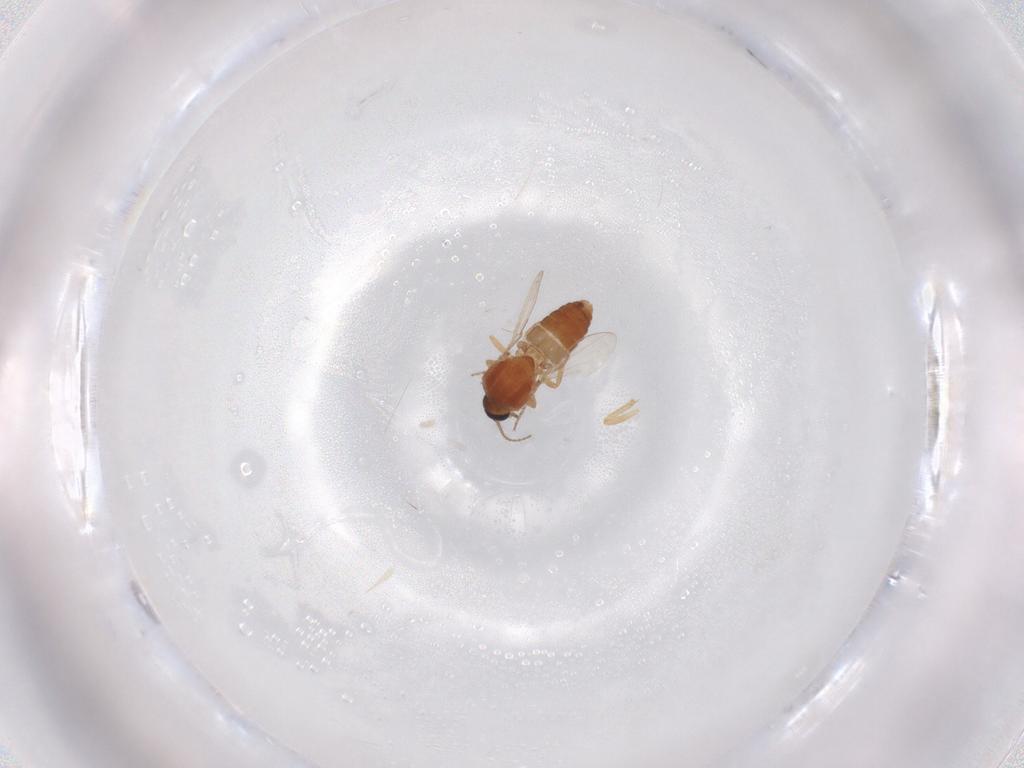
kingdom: Animalia
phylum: Arthropoda
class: Insecta
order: Diptera
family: Ceratopogonidae
